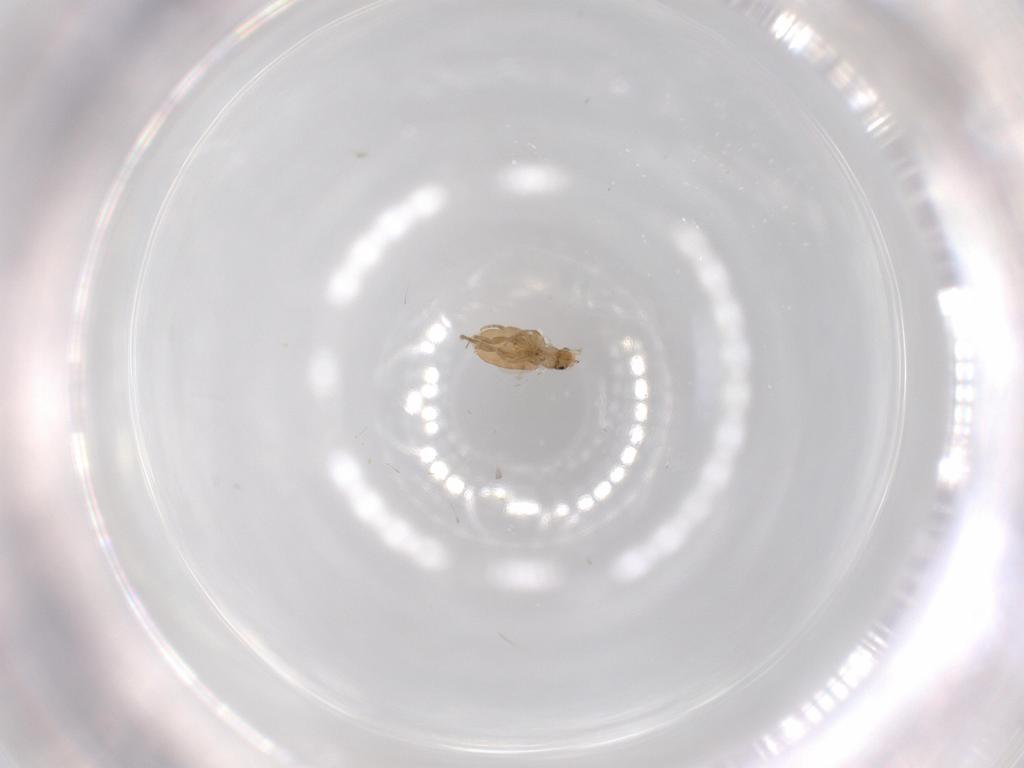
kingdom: Animalia
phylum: Arthropoda
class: Insecta
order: Diptera
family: Phoridae
